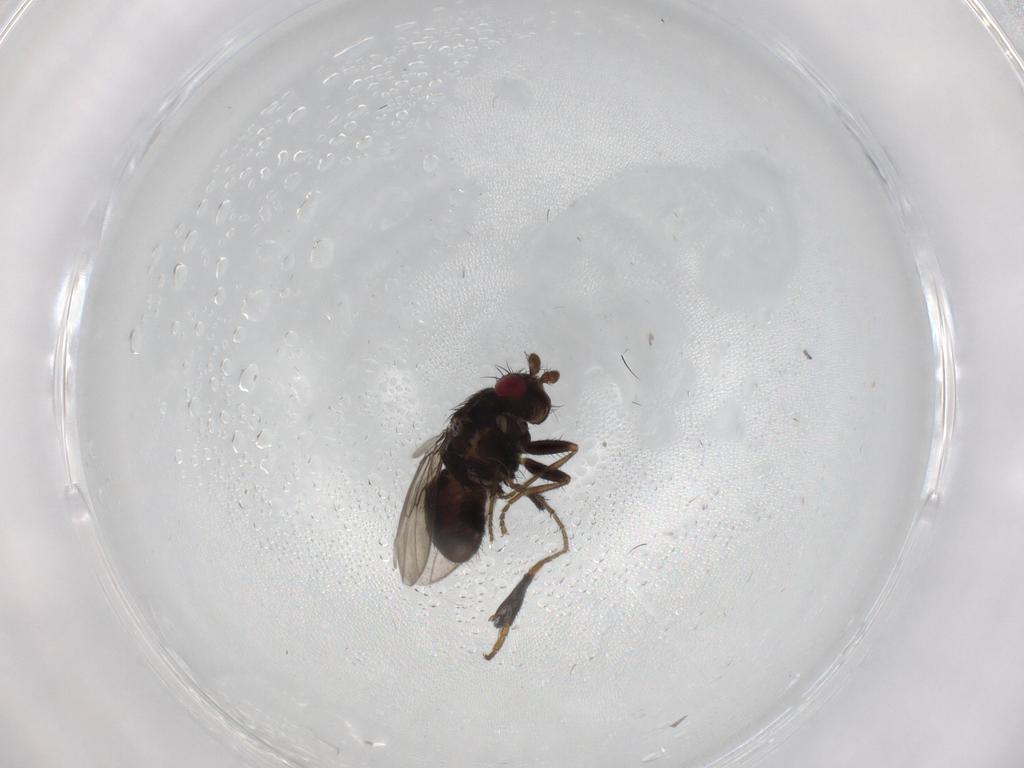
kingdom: Animalia
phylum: Arthropoda
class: Insecta
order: Diptera
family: Sphaeroceridae
